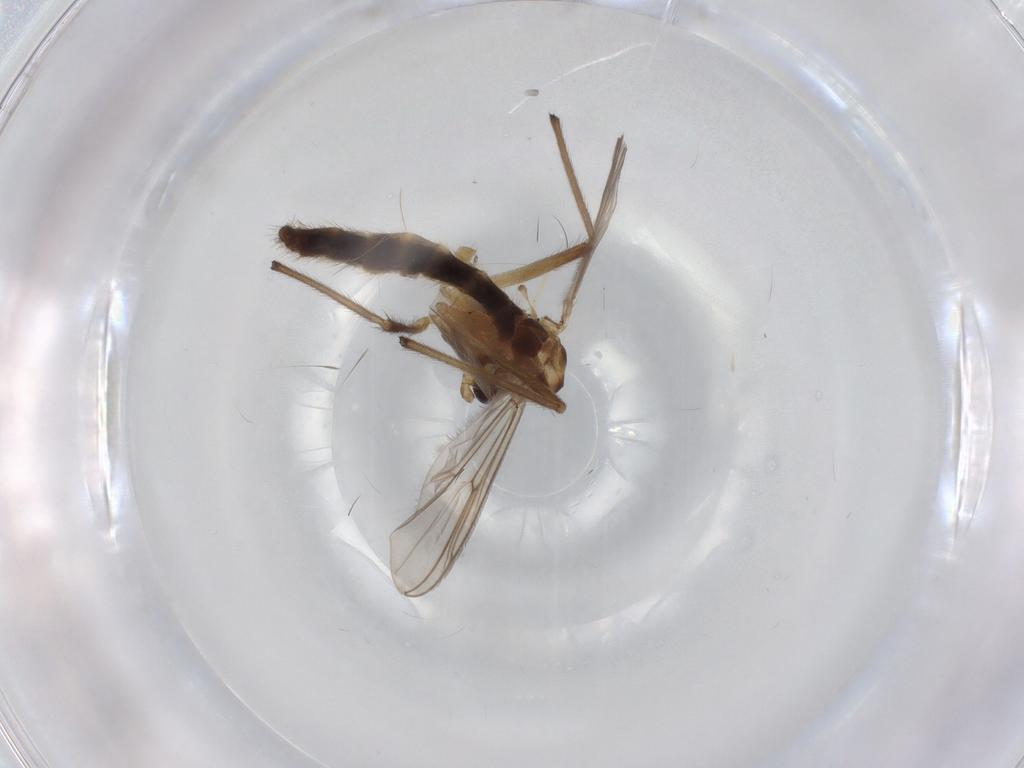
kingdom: Animalia
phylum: Arthropoda
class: Insecta
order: Diptera
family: Chironomidae
